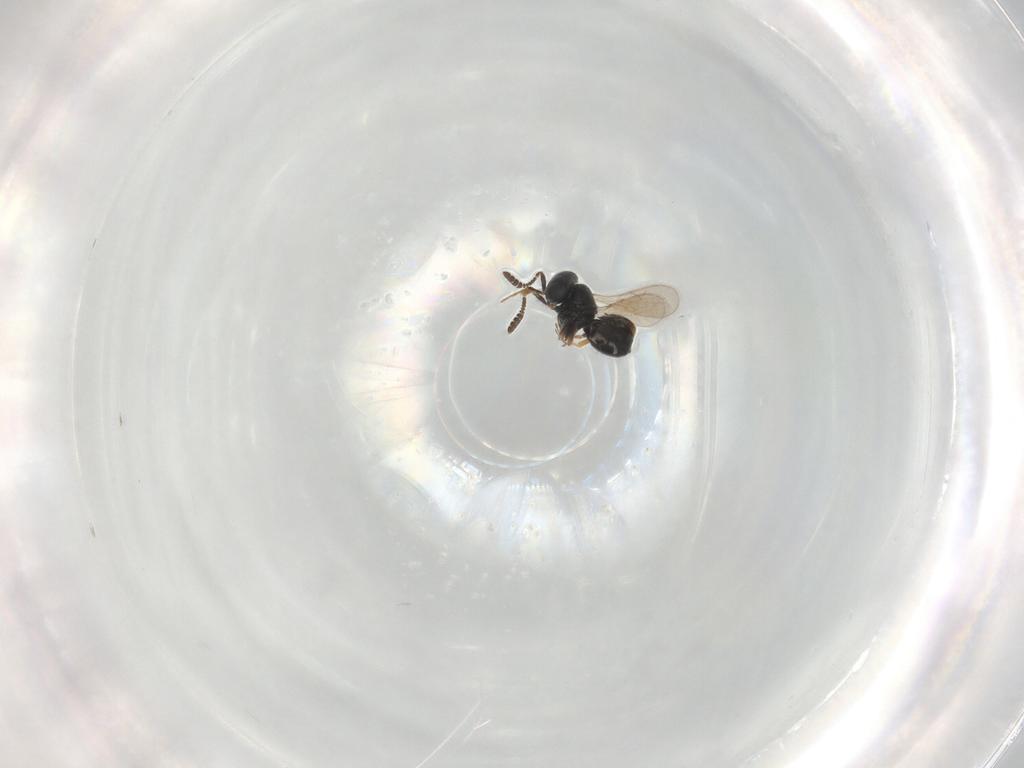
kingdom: Animalia
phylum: Arthropoda
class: Insecta
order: Hymenoptera
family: Scelionidae
